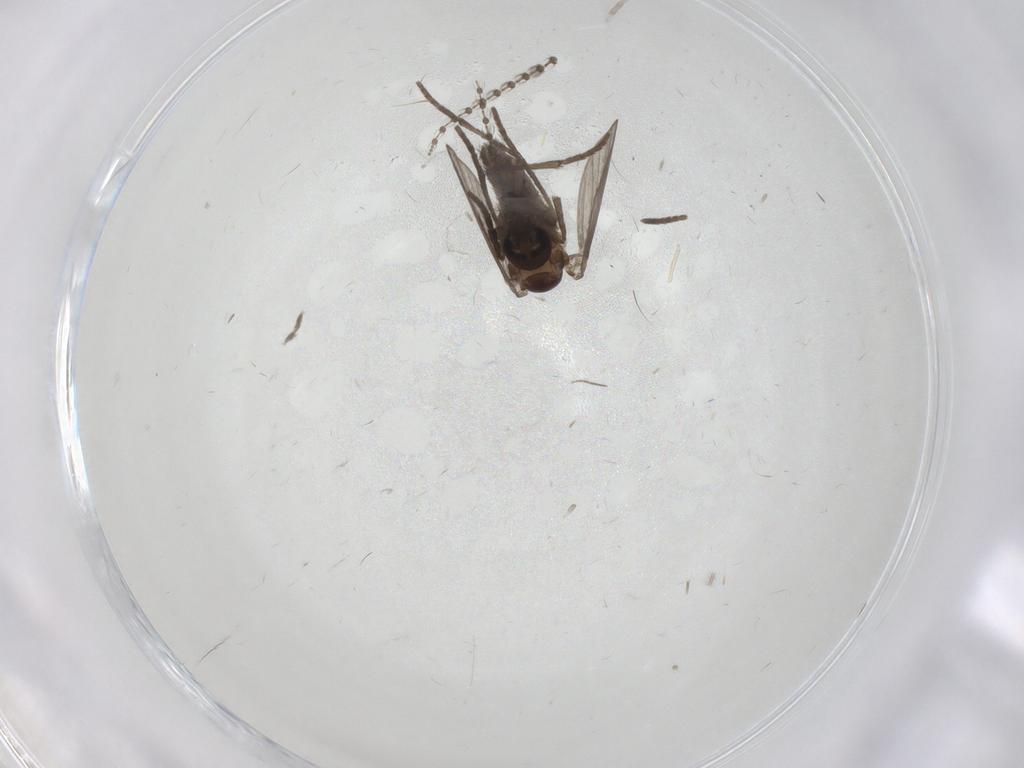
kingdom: Animalia
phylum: Arthropoda
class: Insecta
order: Diptera
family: Psychodidae
